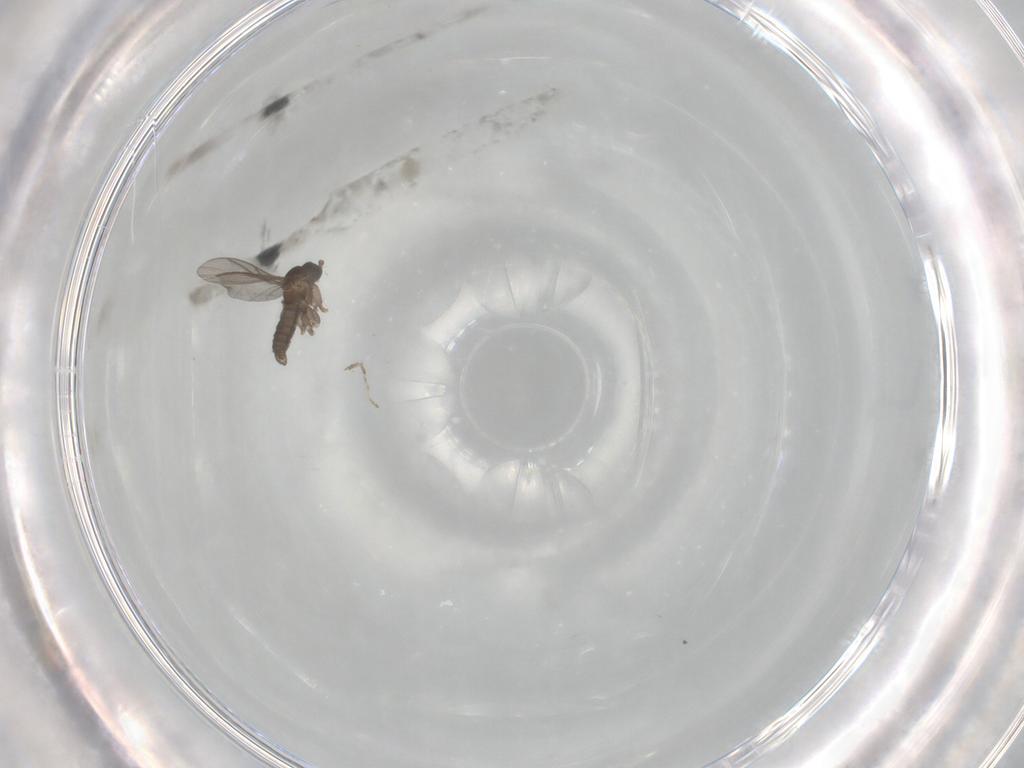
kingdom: Animalia
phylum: Arthropoda
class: Insecta
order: Diptera
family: Sciaridae
